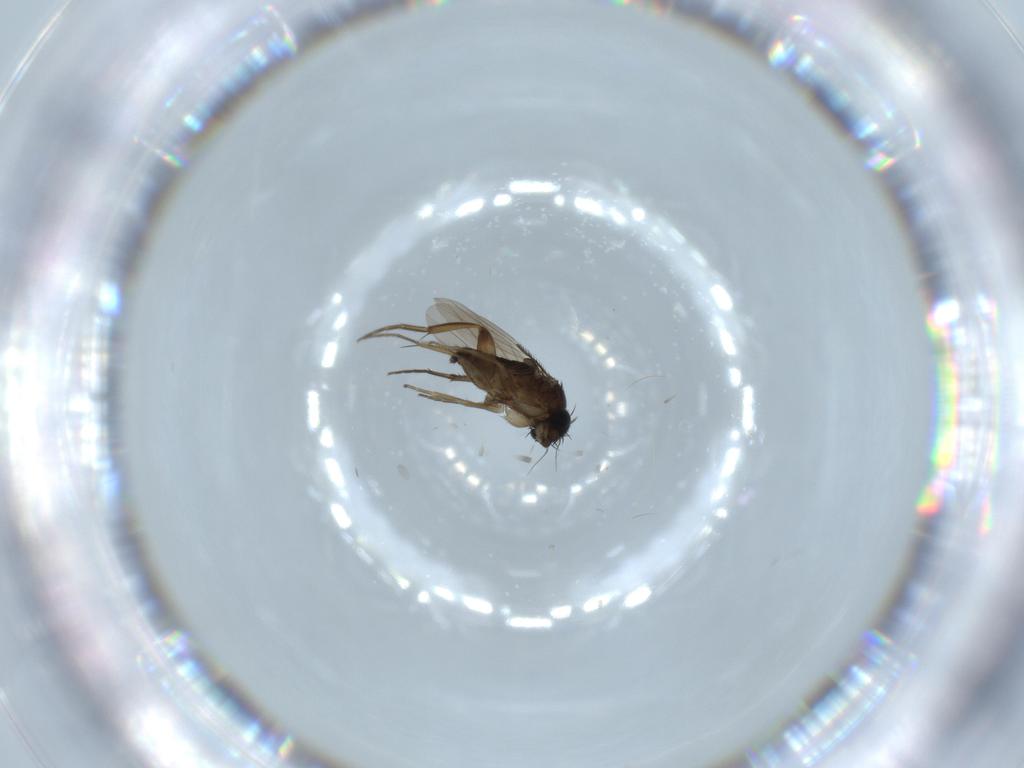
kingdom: Animalia
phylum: Arthropoda
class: Insecta
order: Diptera
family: Phoridae
